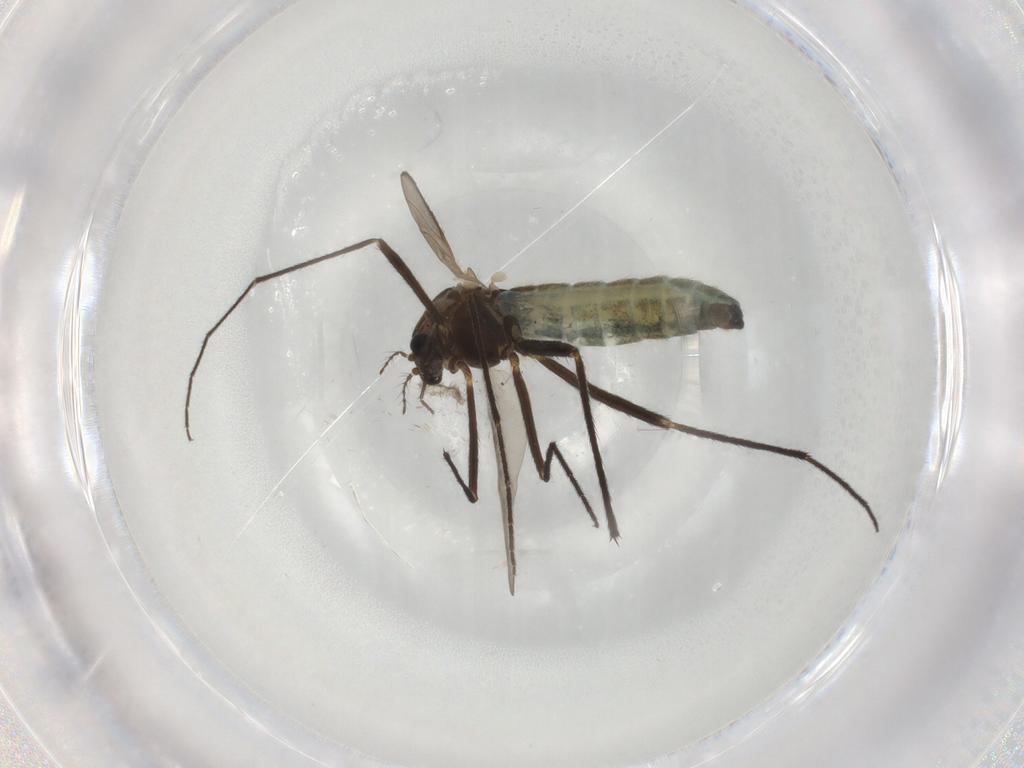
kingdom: Animalia
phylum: Arthropoda
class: Insecta
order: Diptera
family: Chironomidae
